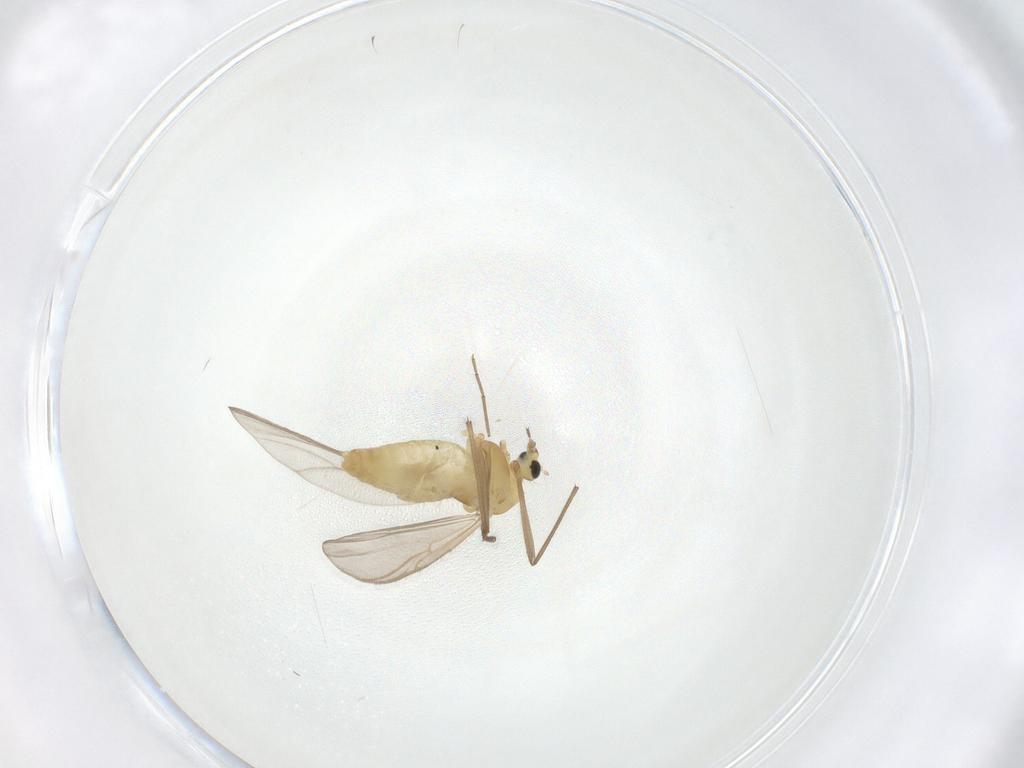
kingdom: Animalia
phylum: Arthropoda
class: Insecta
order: Diptera
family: Chironomidae
